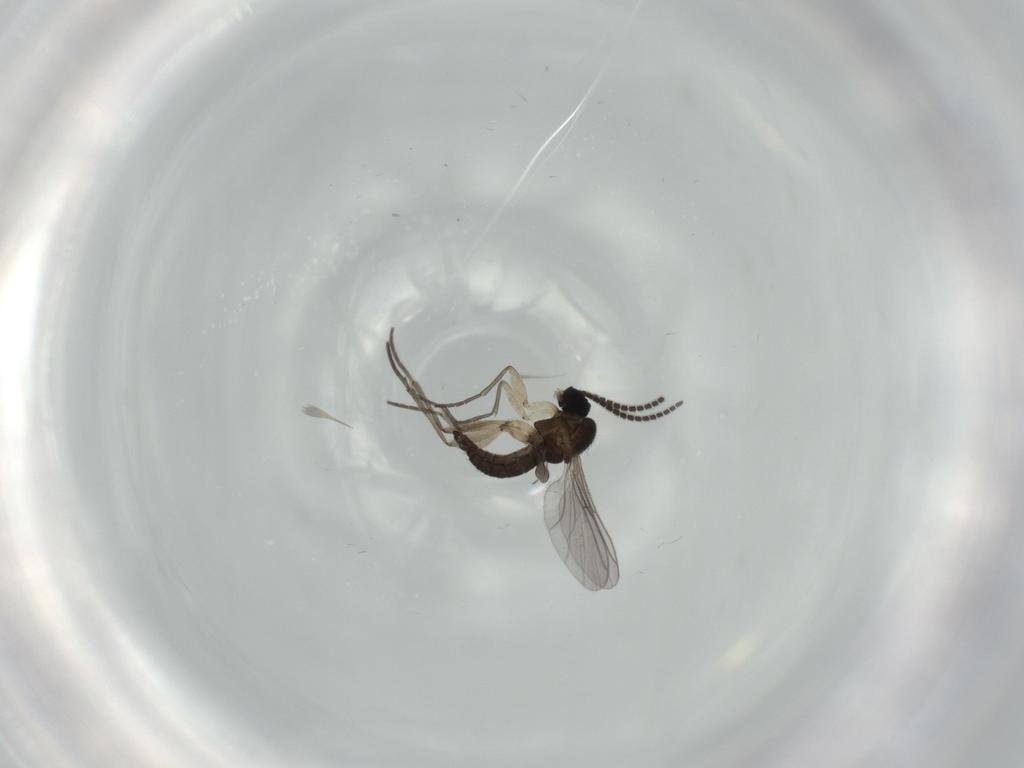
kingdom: Animalia
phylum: Arthropoda
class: Insecta
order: Diptera
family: Sciaridae
